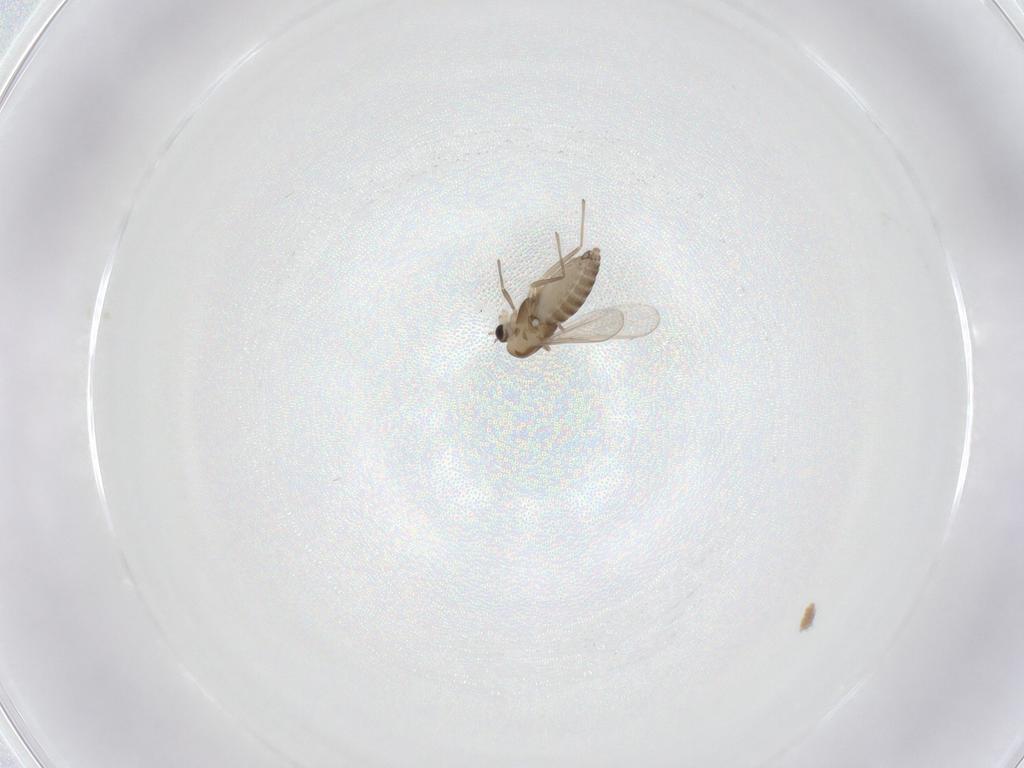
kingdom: Animalia
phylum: Arthropoda
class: Insecta
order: Diptera
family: Chironomidae
